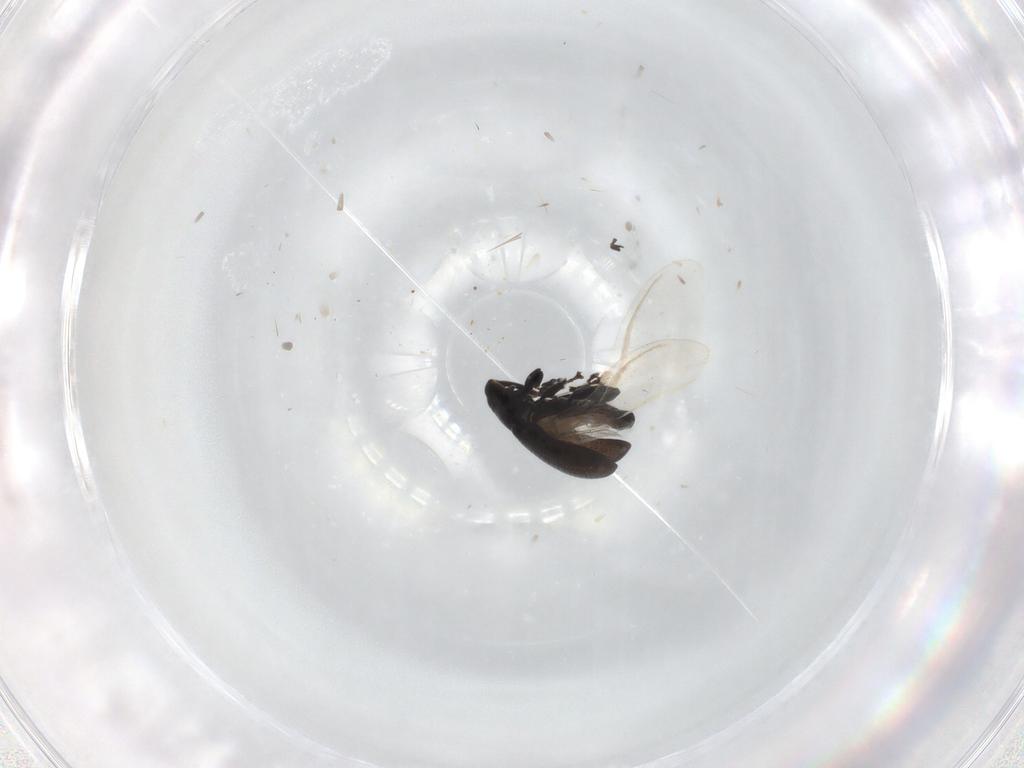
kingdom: Animalia
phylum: Arthropoda
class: Insecta
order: Coleoptera
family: Curculionidae
